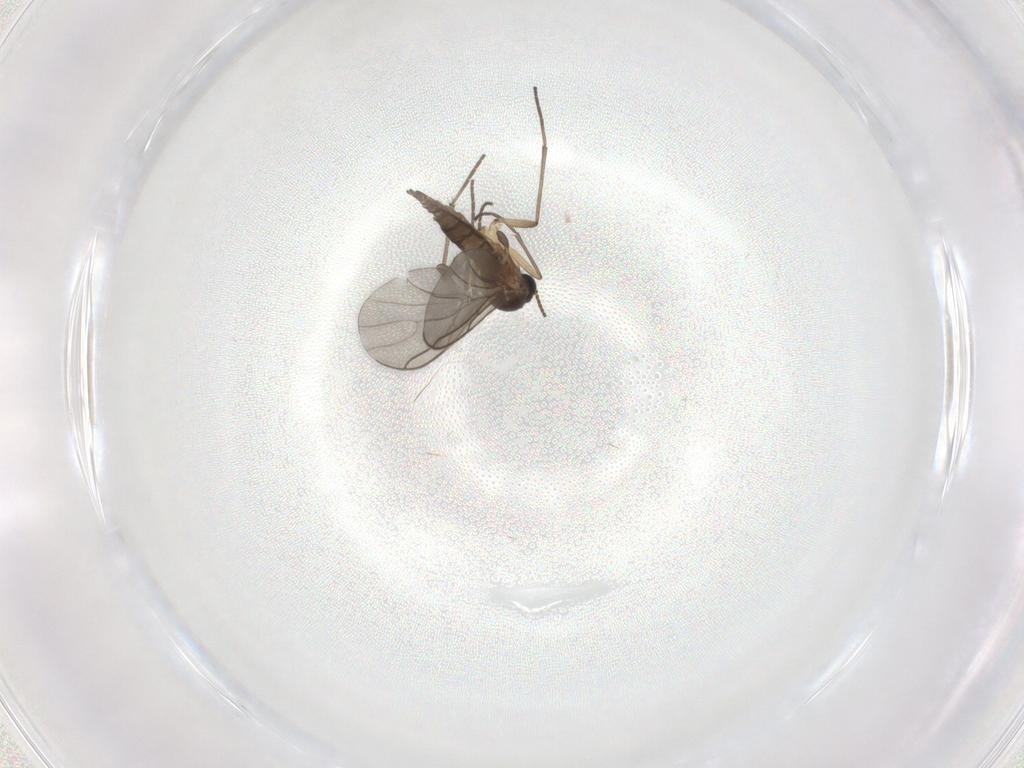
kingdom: Animalia
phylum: Arthropoda
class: Insecta
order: Diptera
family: Sciaridae
